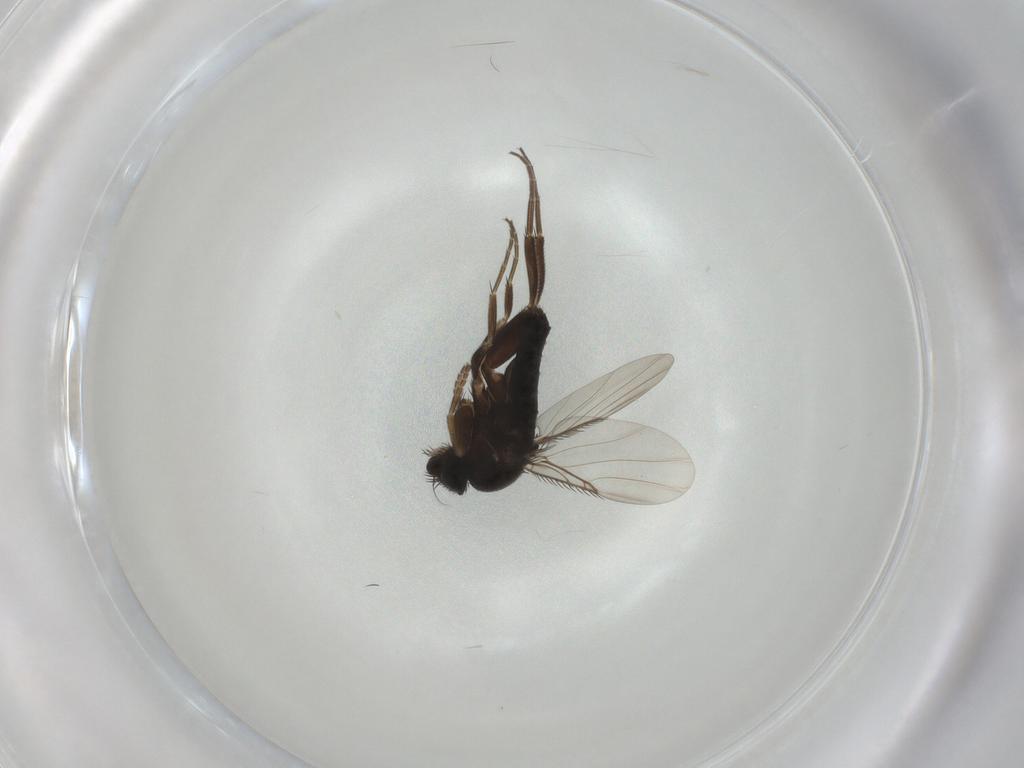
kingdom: Animalia
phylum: Arthropoda
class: Insecta
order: Diptera
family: Phoridae
